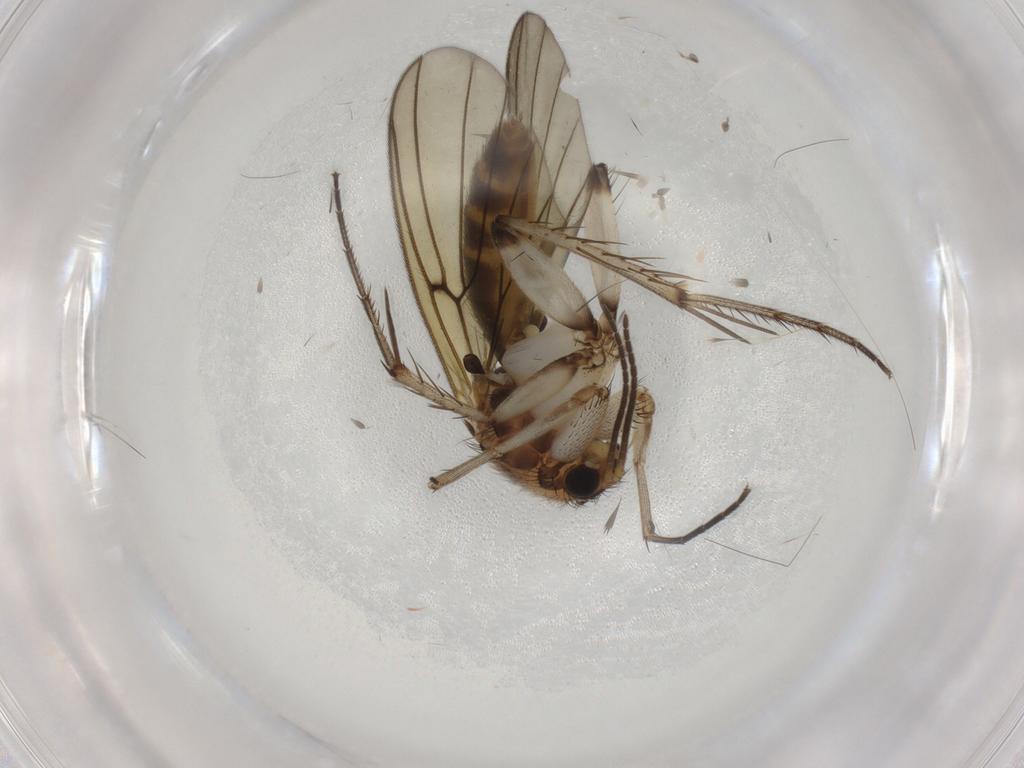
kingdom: Animalia
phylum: Arthropoda
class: Insecta
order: Diptera
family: Mycetophilidae
